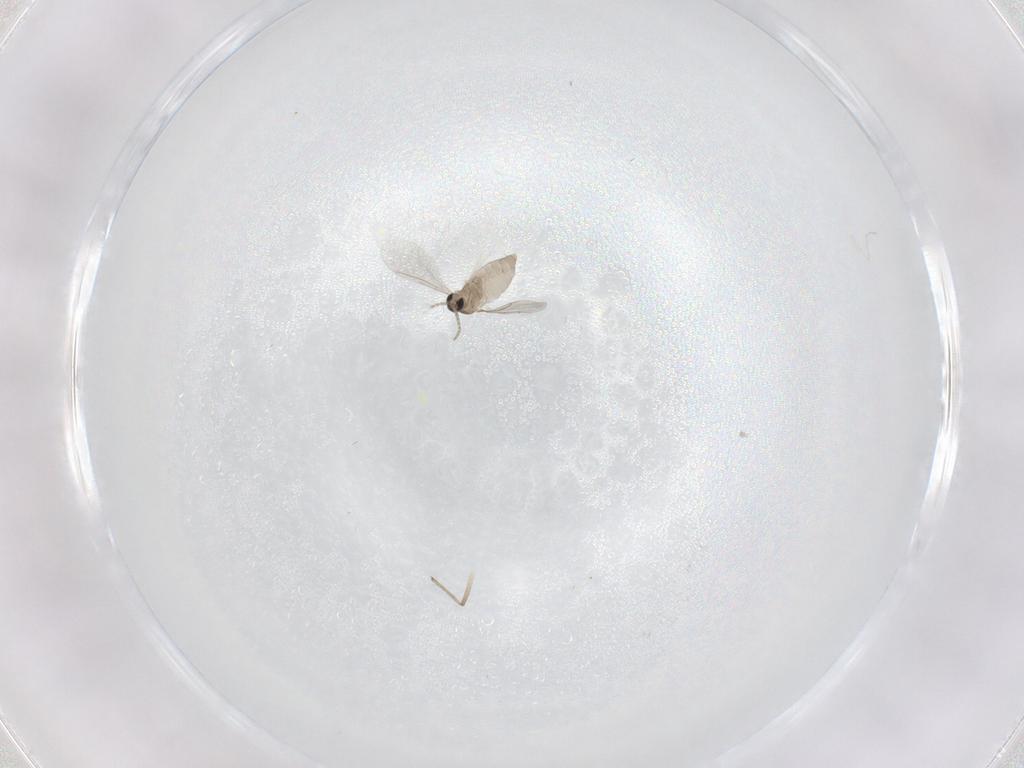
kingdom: Animalia
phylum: Arthropoda
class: Insecta
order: Diptera
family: Cecidomyiidae
